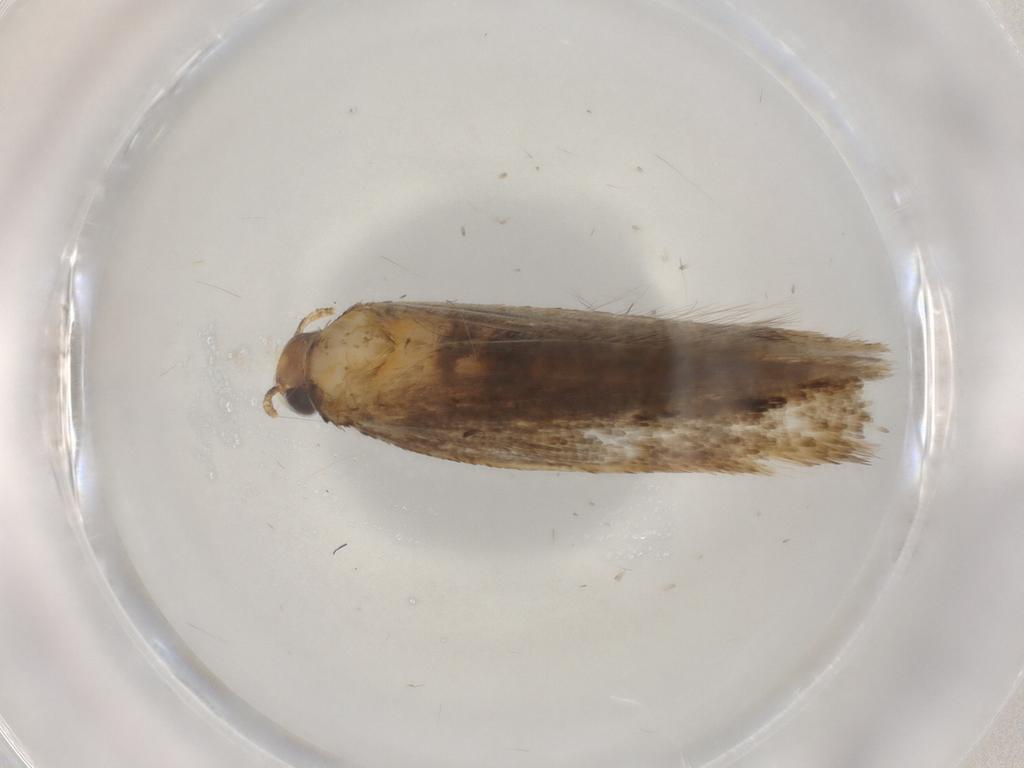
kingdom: Animalia
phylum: Arthropoda
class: Insecta
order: Lepidoptera
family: Gelechiidae
